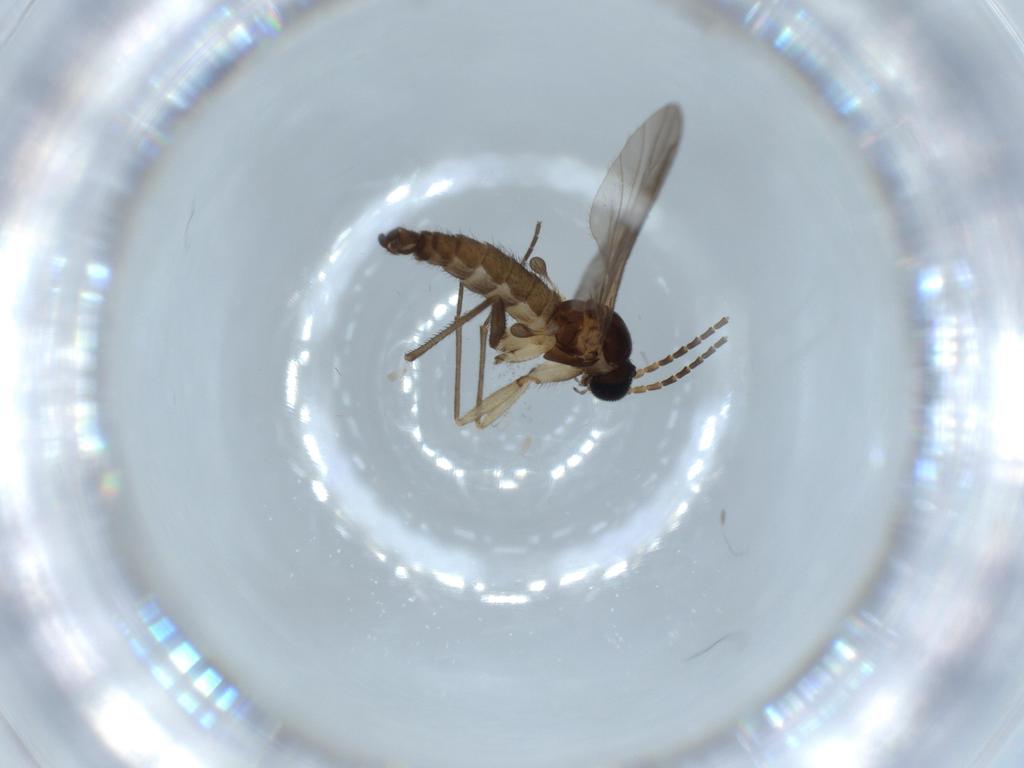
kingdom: Animalia
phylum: Arthropoda
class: Insecta
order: Diptera
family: Sciaridae
